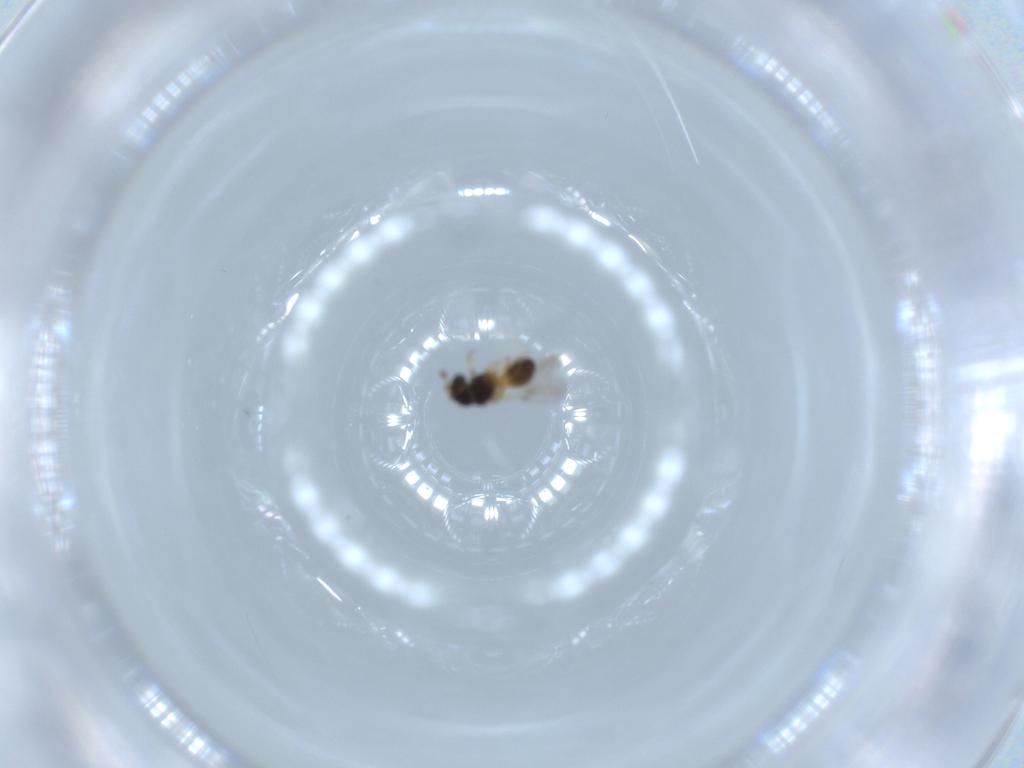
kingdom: Animalia
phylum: Arthropoda
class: Insecta
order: Hymenoptera
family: Scelionidae
